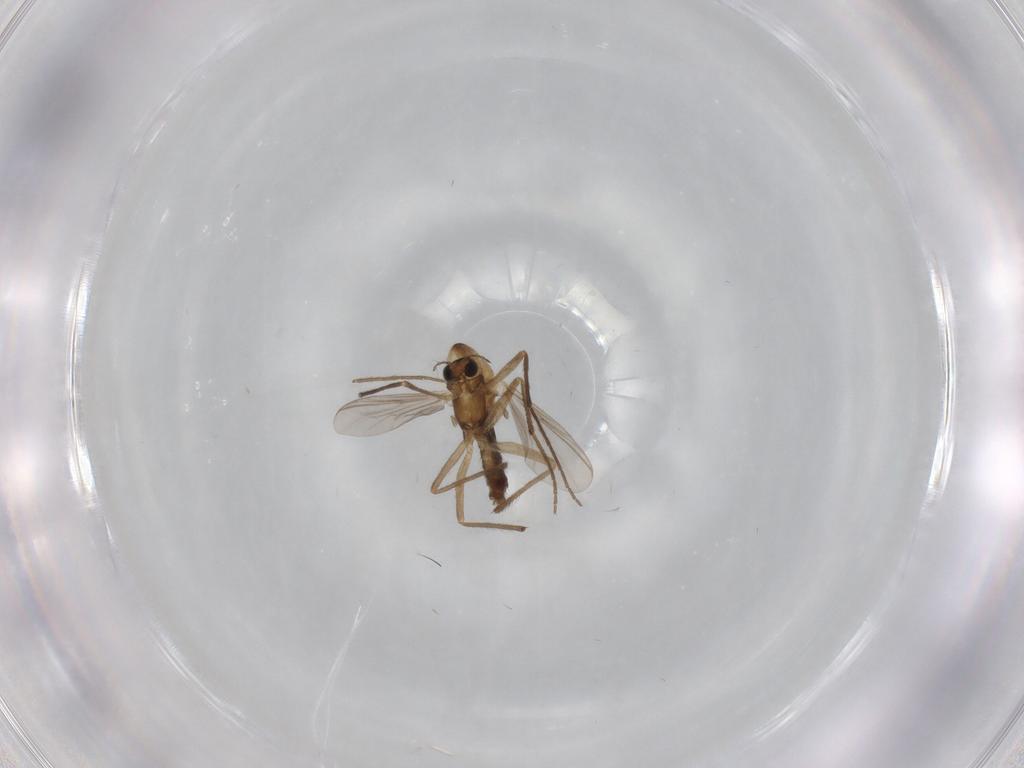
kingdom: Animalia
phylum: Arthropoda
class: Insecta
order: Diptera
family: Chironomidae
